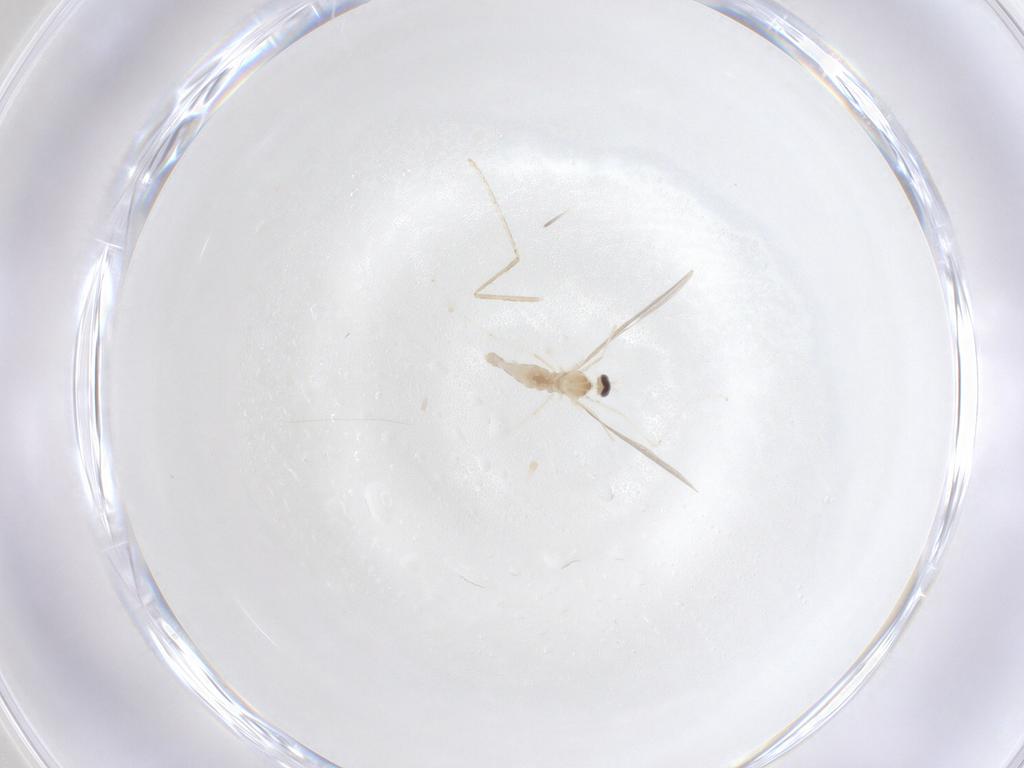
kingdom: Animalia
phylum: Arthropoda
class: Insecta
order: Diptera
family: Cecidomyiidae
